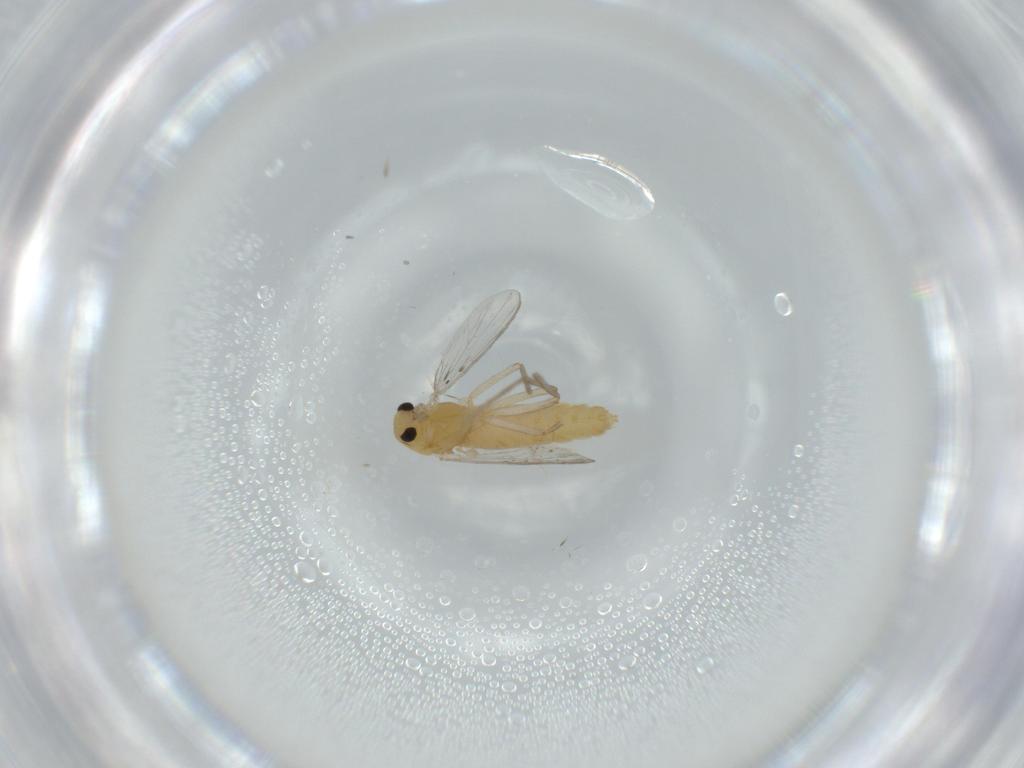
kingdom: Animalia
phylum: Arthropoda
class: Insecta
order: Diptera
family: Chironomidae
